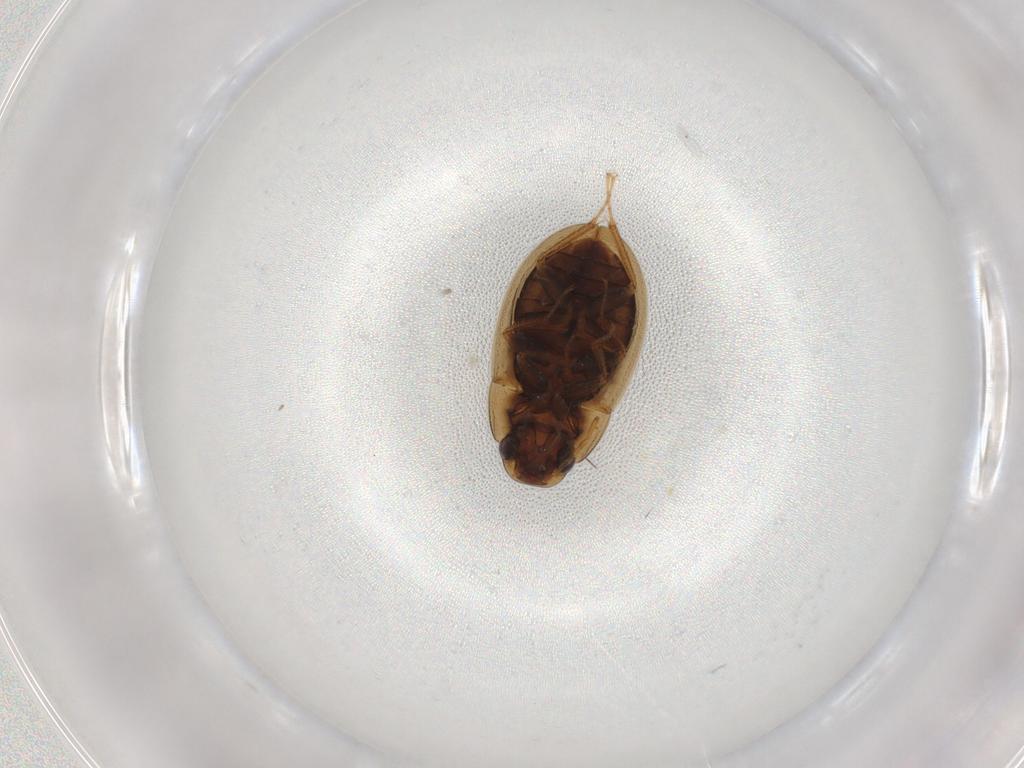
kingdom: Animalia
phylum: Arthropoda
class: Insecta
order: Coleoptera
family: Hydrophilidae
